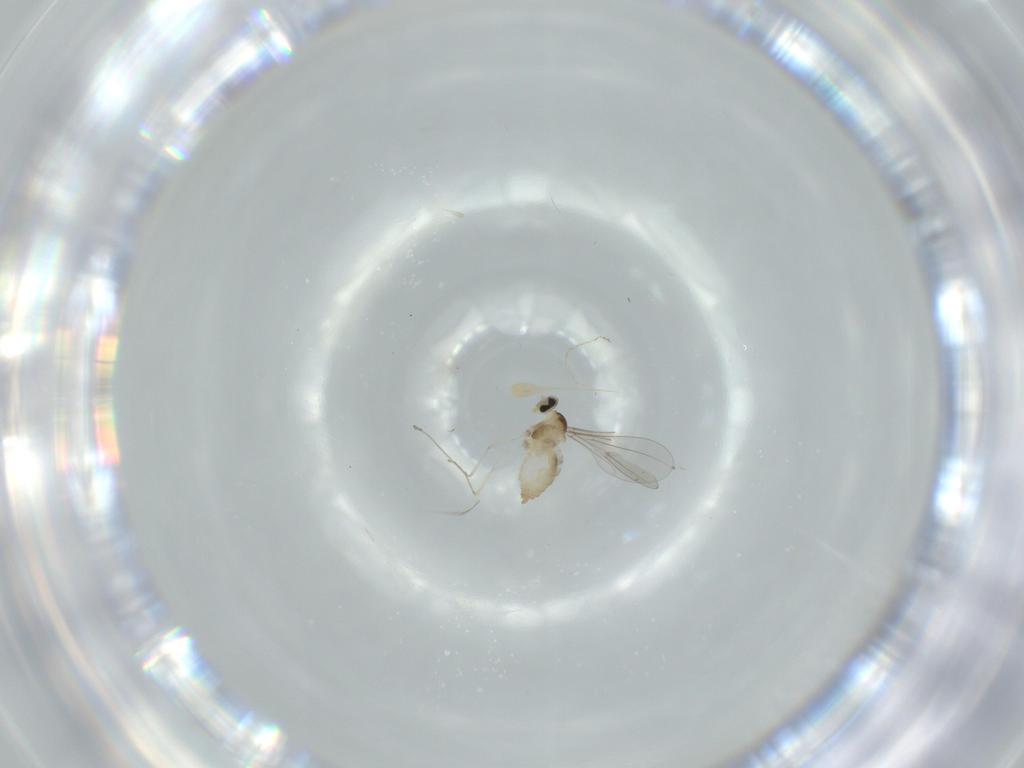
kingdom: Animalia
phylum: Arthropoda
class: Insecta
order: Diptera
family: Cecidomyiidae
